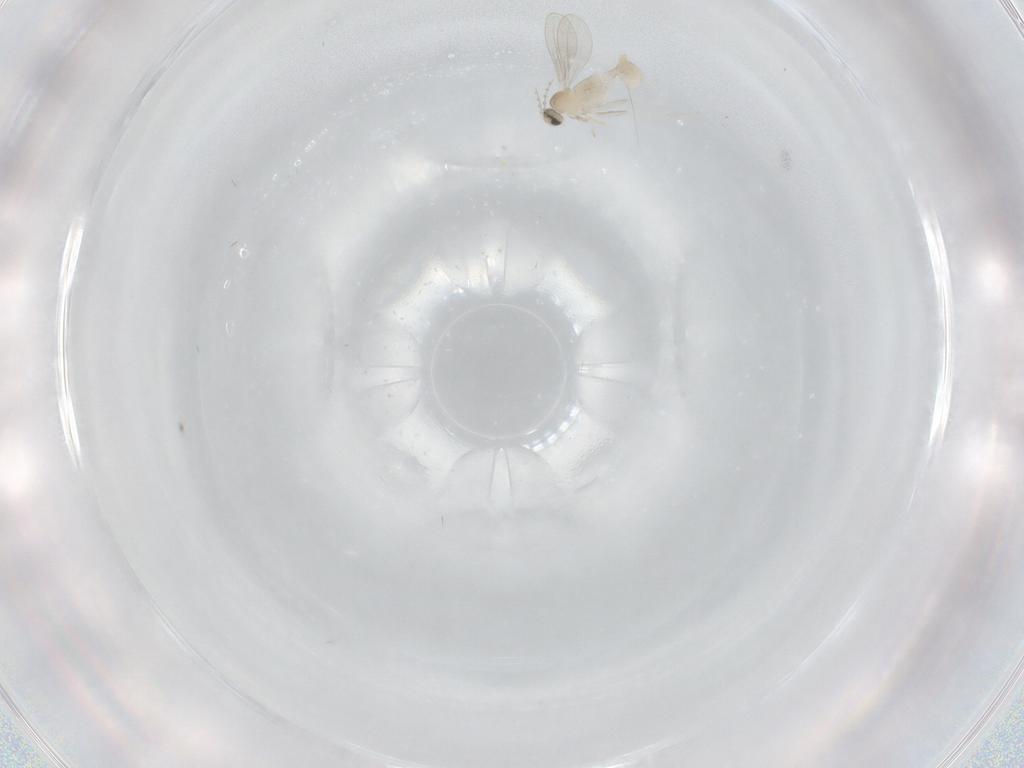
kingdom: Animalia
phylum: Arthropoda
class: Insecta
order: Diptera
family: Cecidomyiidae
